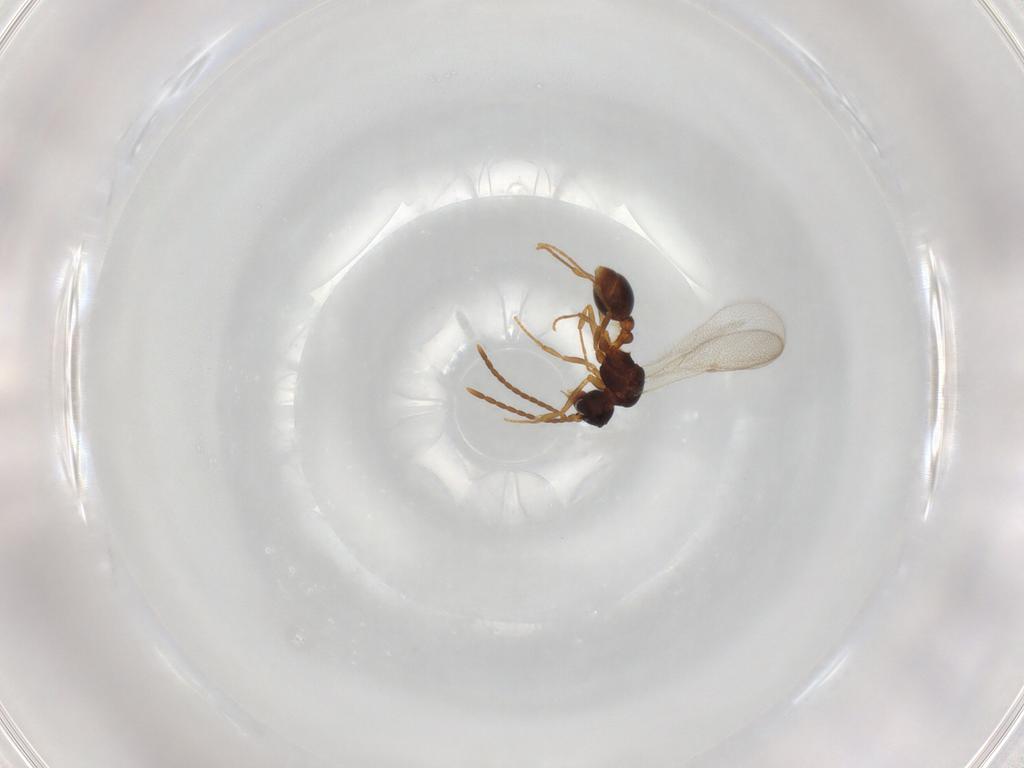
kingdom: Animalia
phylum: Arthropoda
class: Insecta
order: Hymenoptera
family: Formicidae
